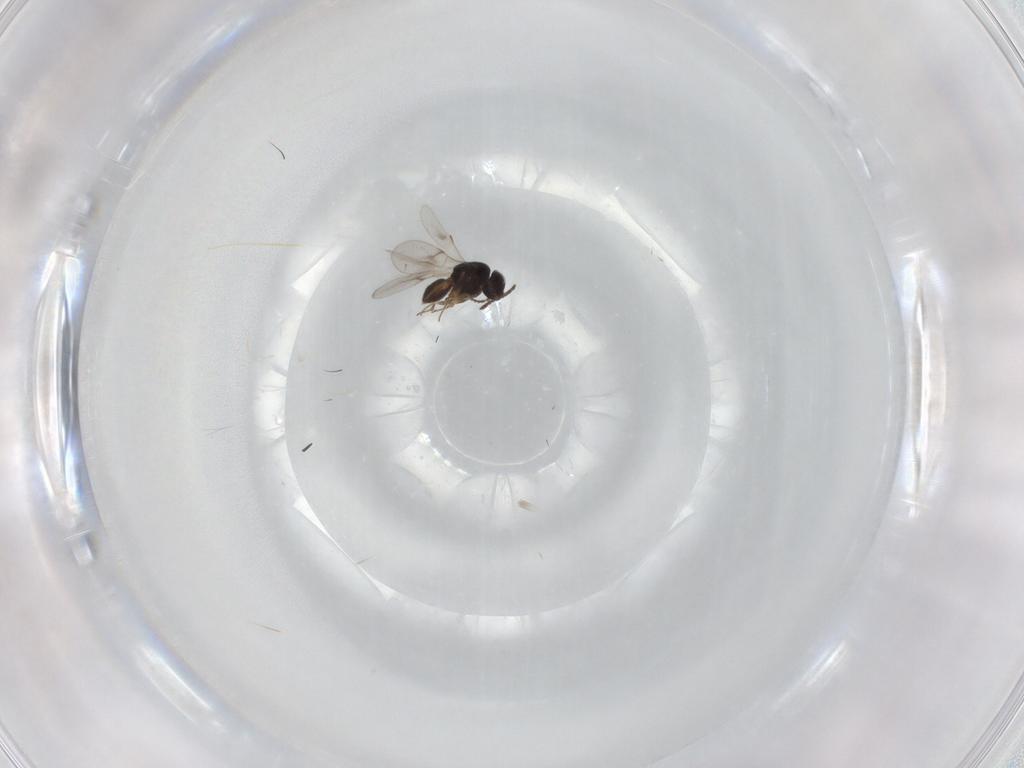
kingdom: Animalia
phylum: Arthropoda
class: Insecta
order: Hymenoptera
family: Scelionidae
